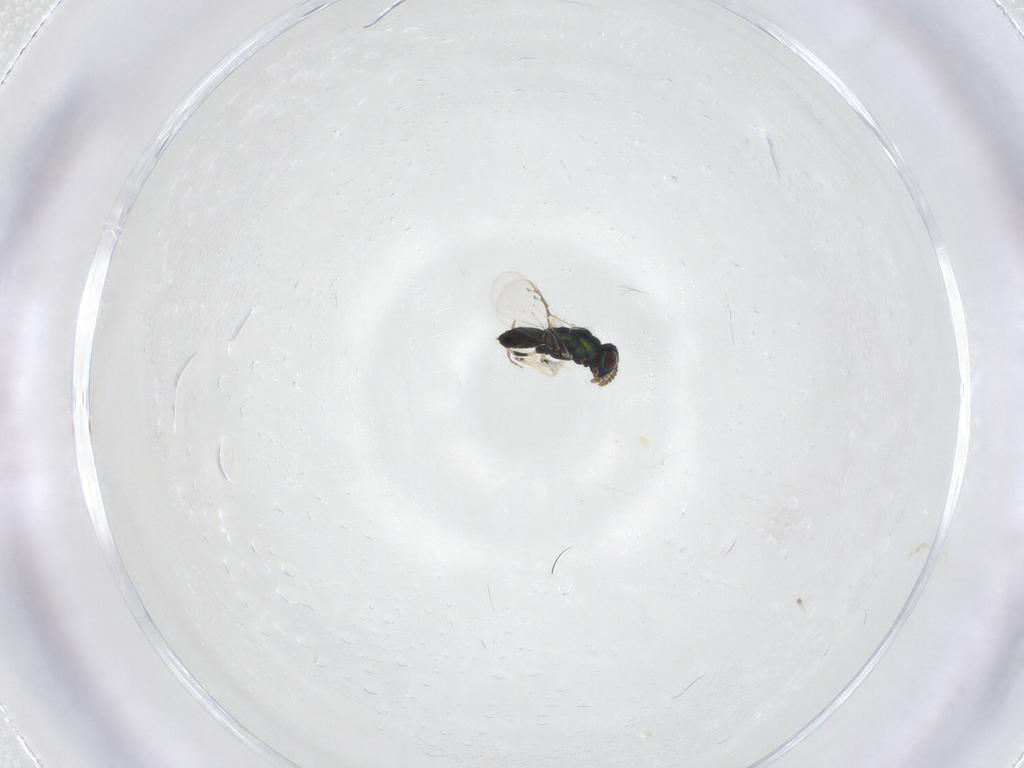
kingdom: Animalia
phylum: Arthropoda
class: Insecta
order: Hymenoptera
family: Pirenidae
